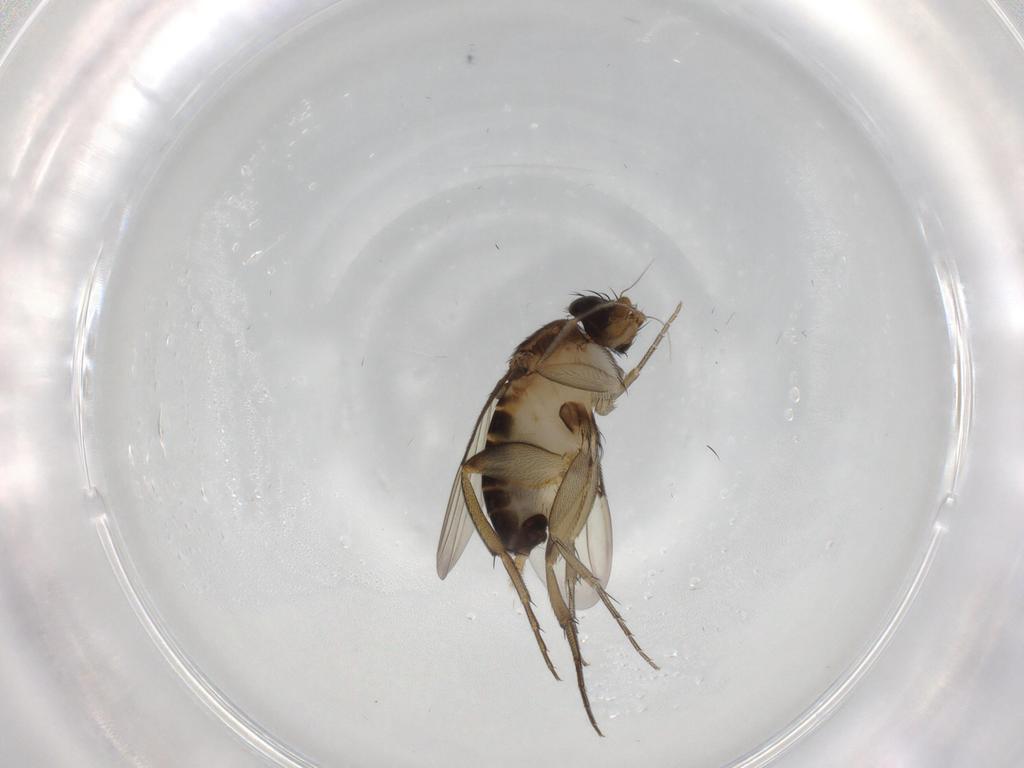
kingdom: Animalia
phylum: Arthropoda
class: Insecta
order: Diptera
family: Phoridae
